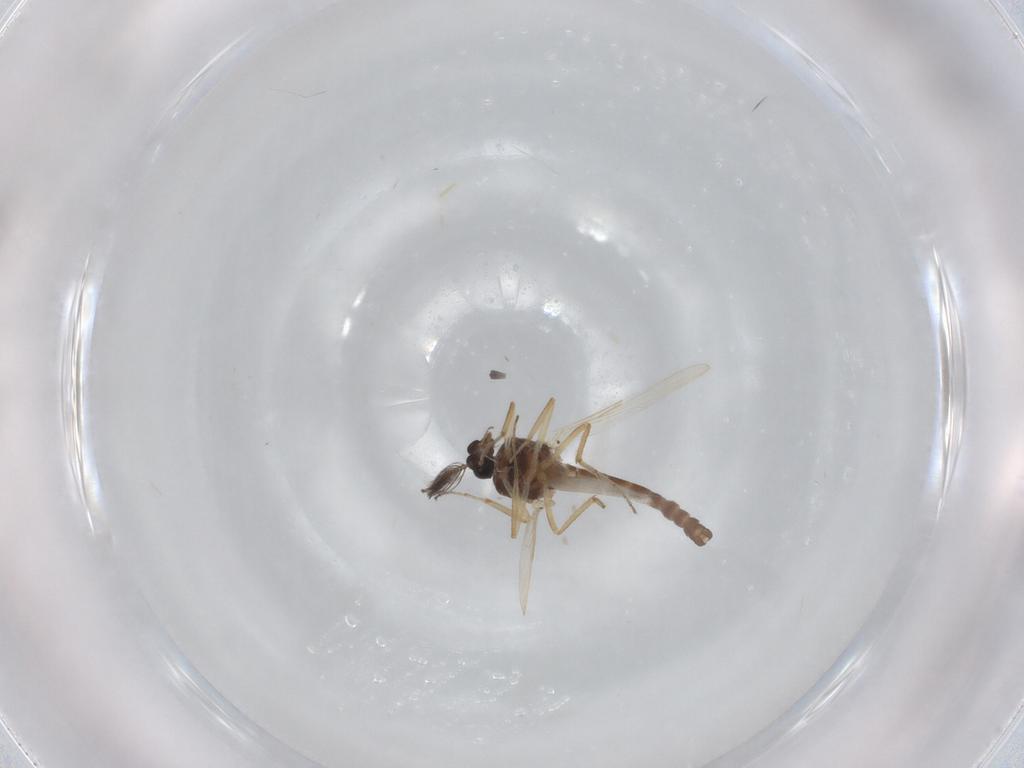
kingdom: Animalia
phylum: Arthropoda
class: Insecta
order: Diptera
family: Ceratopogonidae
